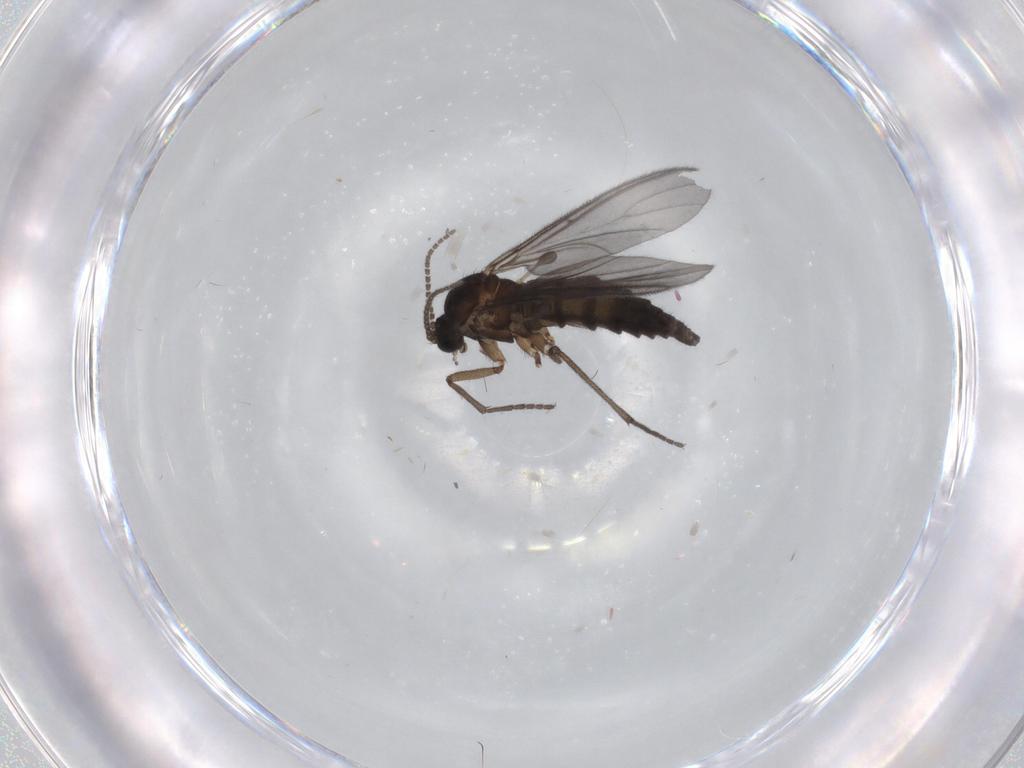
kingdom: Animalia
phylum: Arthropoda
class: Insecta
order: Diptera
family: Sciaridae
